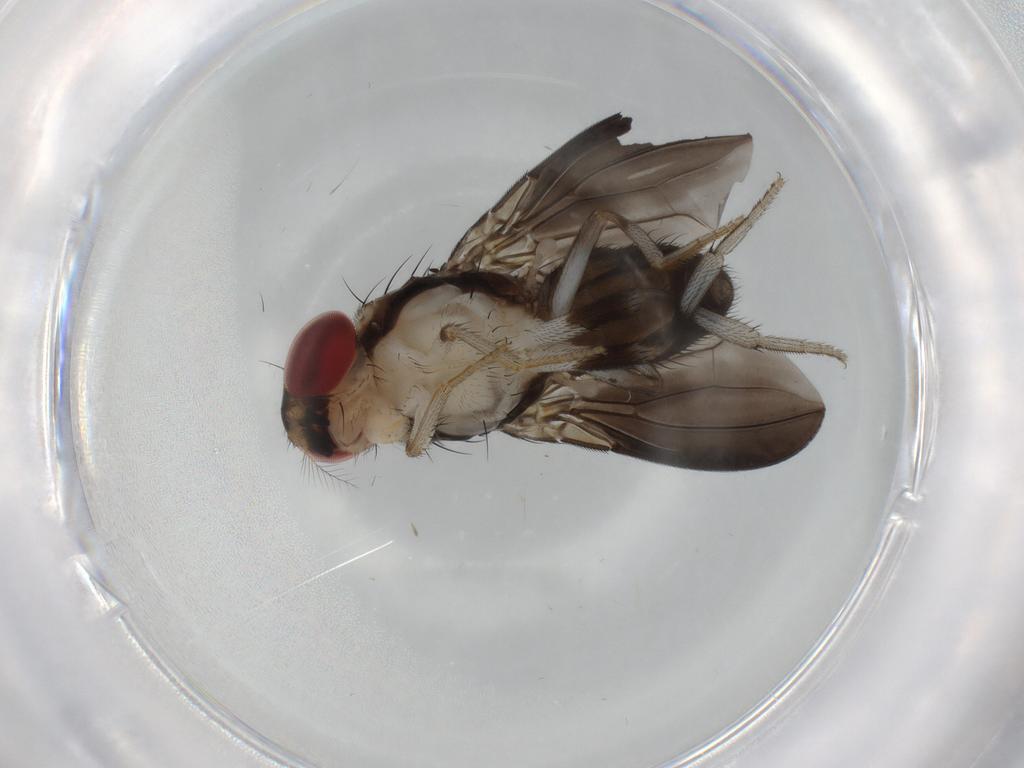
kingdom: Animalia
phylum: Arthropoda
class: Insecta
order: Diptera
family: Drosophilidae
